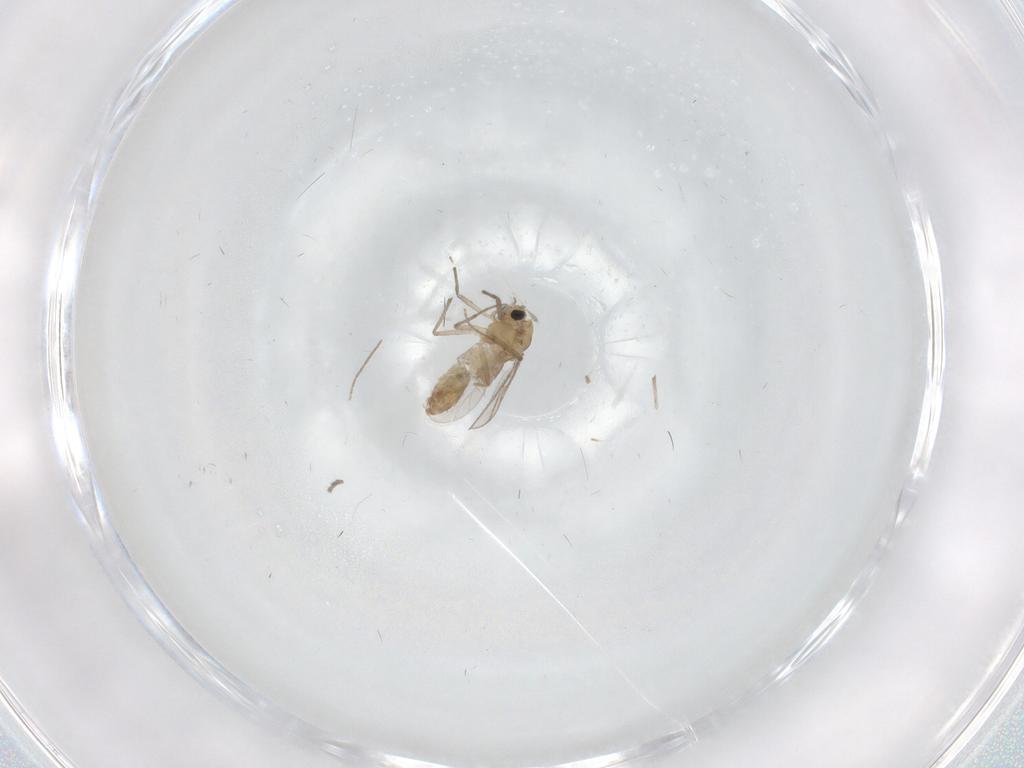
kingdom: Animalia
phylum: Arthropoda
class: Insecta
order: Diptera
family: Chironomidae
